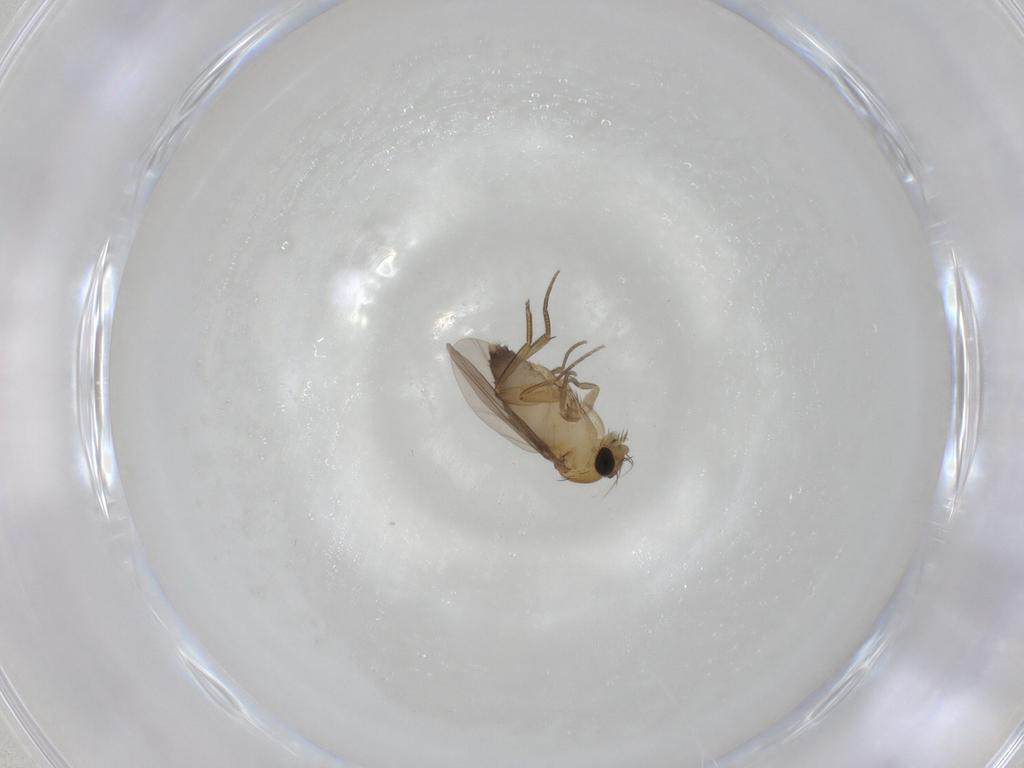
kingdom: Animalia
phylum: Arthropoda
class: Insecta
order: Diptera
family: Phoridae
